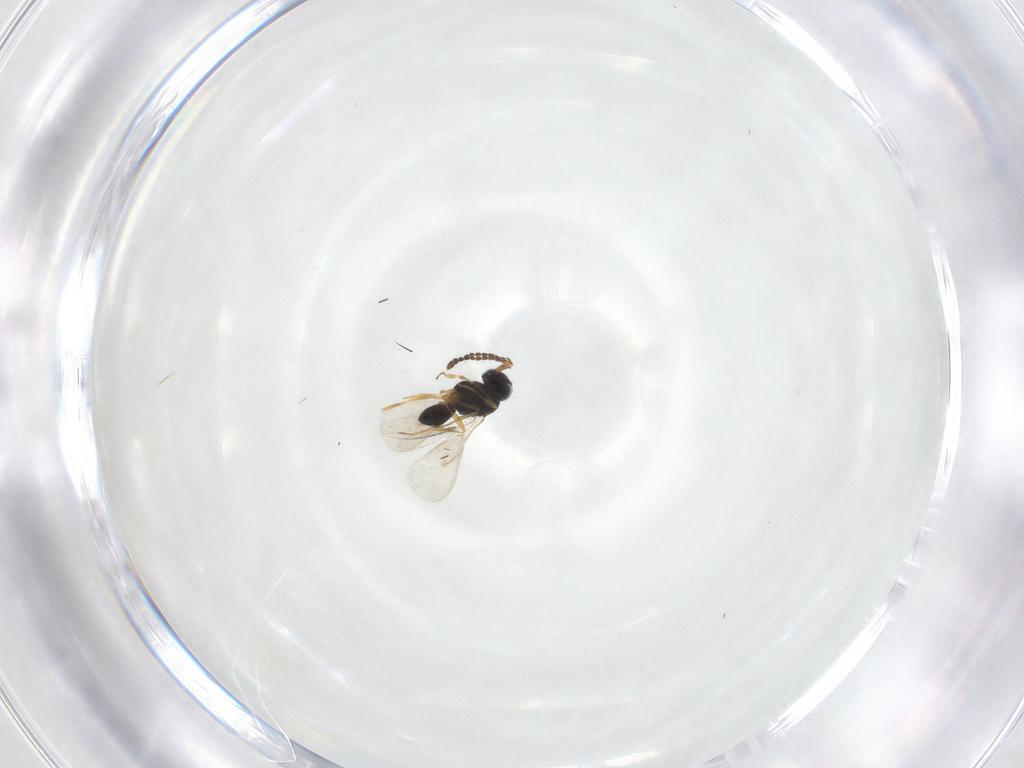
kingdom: Animalia
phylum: Arthropoda
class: Insecta
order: Hymenoptera
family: Scelionidae
